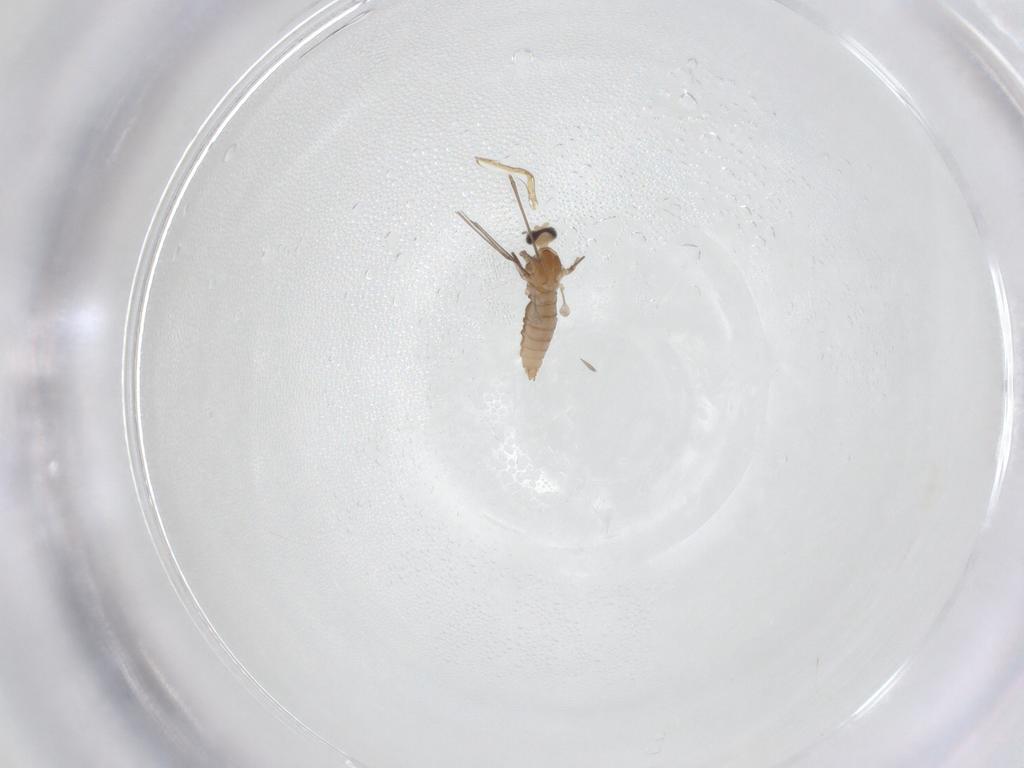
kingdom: Animalia
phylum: Arthropoda
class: Insecta
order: Diptera
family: Cecidomyiidae
